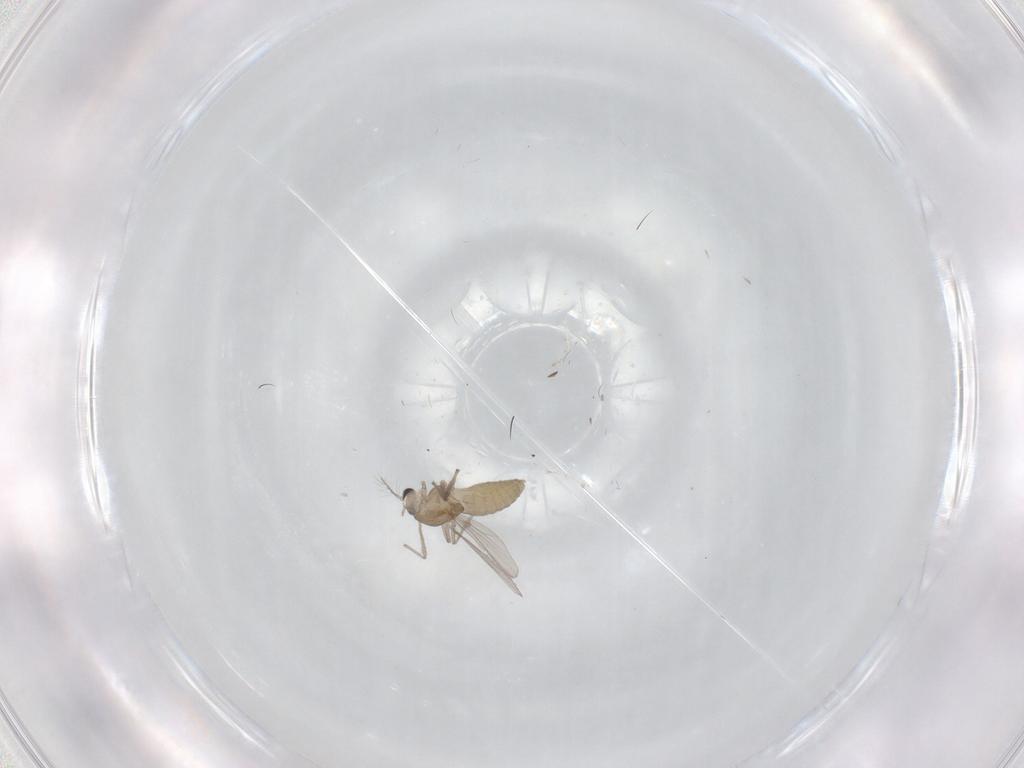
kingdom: Animalia
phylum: Arthropoda
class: Insecta
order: Diptera
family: Chironomidae
